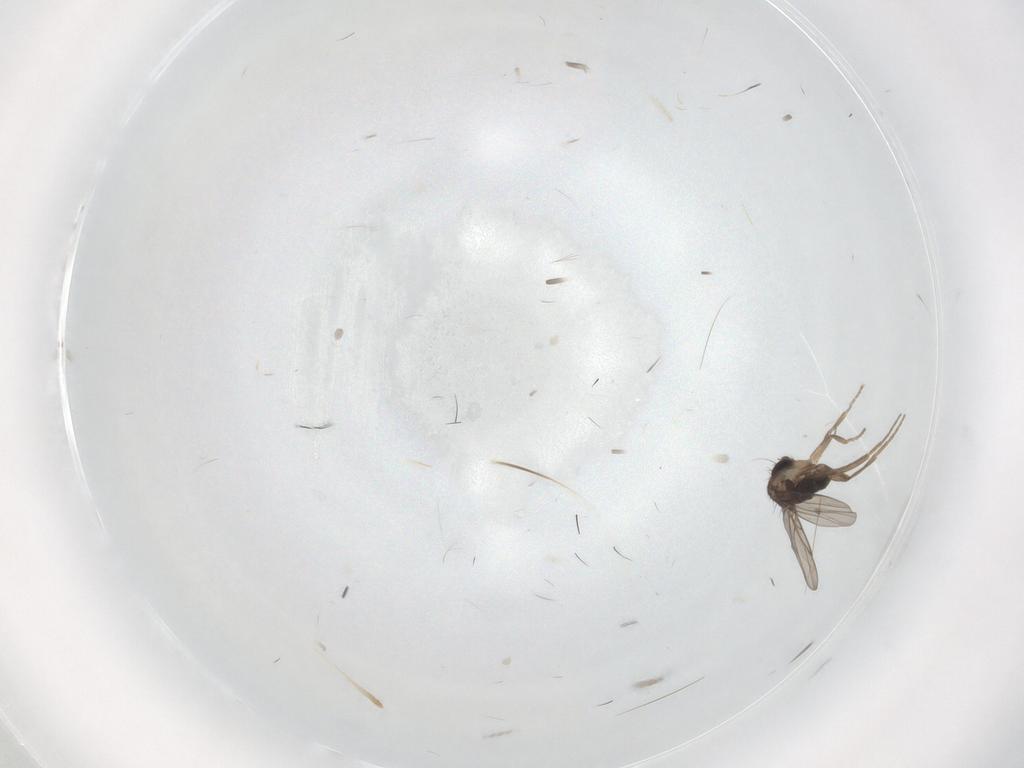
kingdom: Animalia
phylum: Arthropoda
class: Insecta
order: Diptera
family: Phoridae
